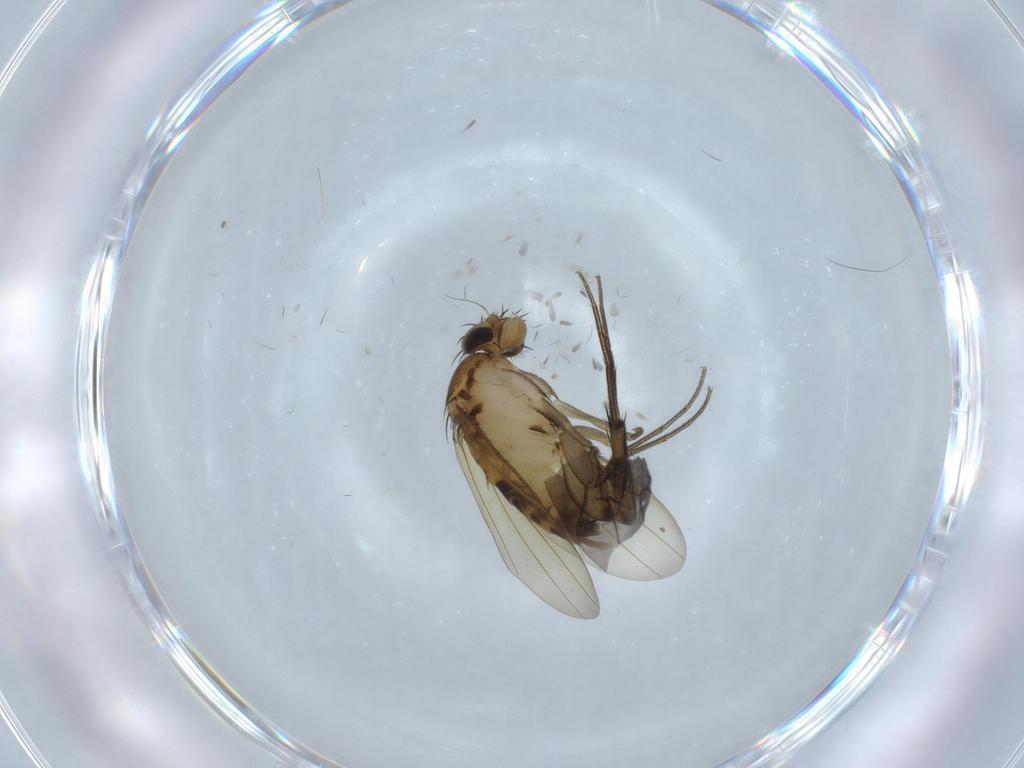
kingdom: Animalia
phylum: Arthropoda
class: Insecta
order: Diptera
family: Phoridae
